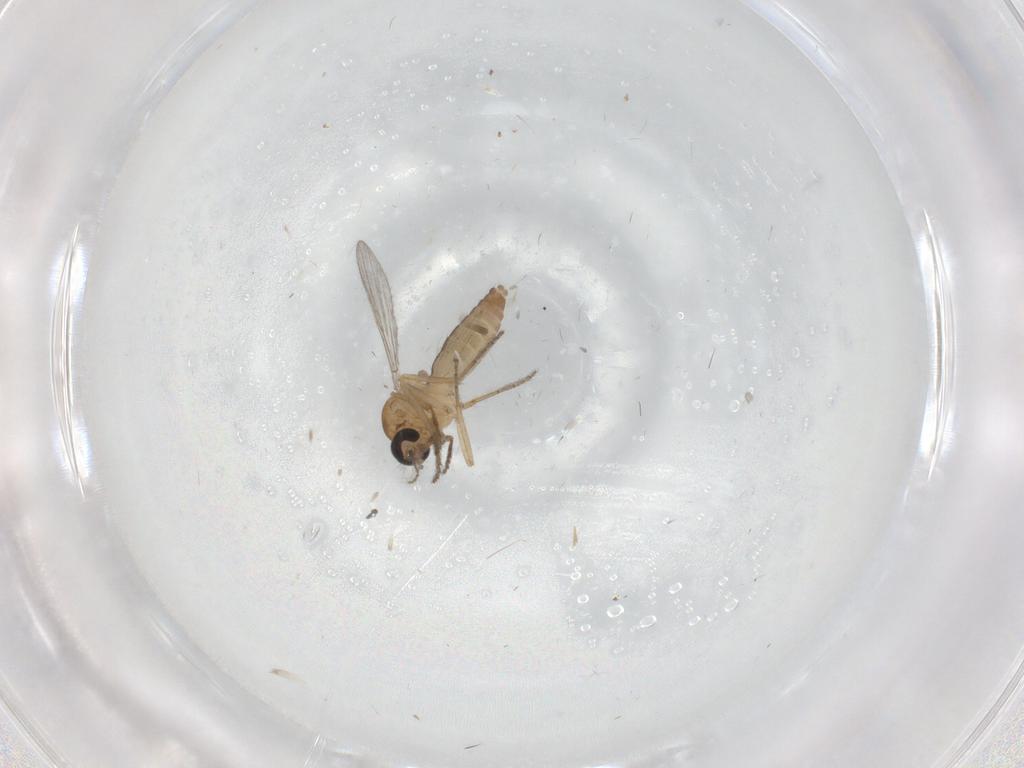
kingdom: Animalia
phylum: Arthropoda
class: Insecta
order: Diptera
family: Ceratopogonidae
